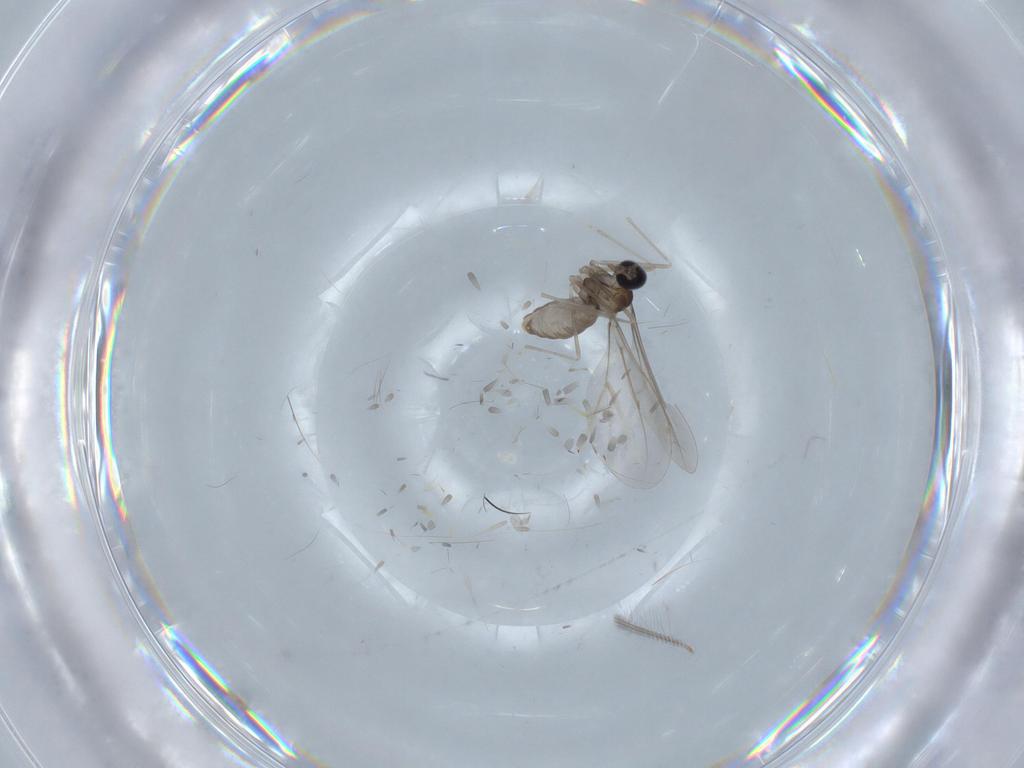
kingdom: Animalia
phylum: Arthropoda
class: Insecta
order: Diptera
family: Cecidomyiidae
